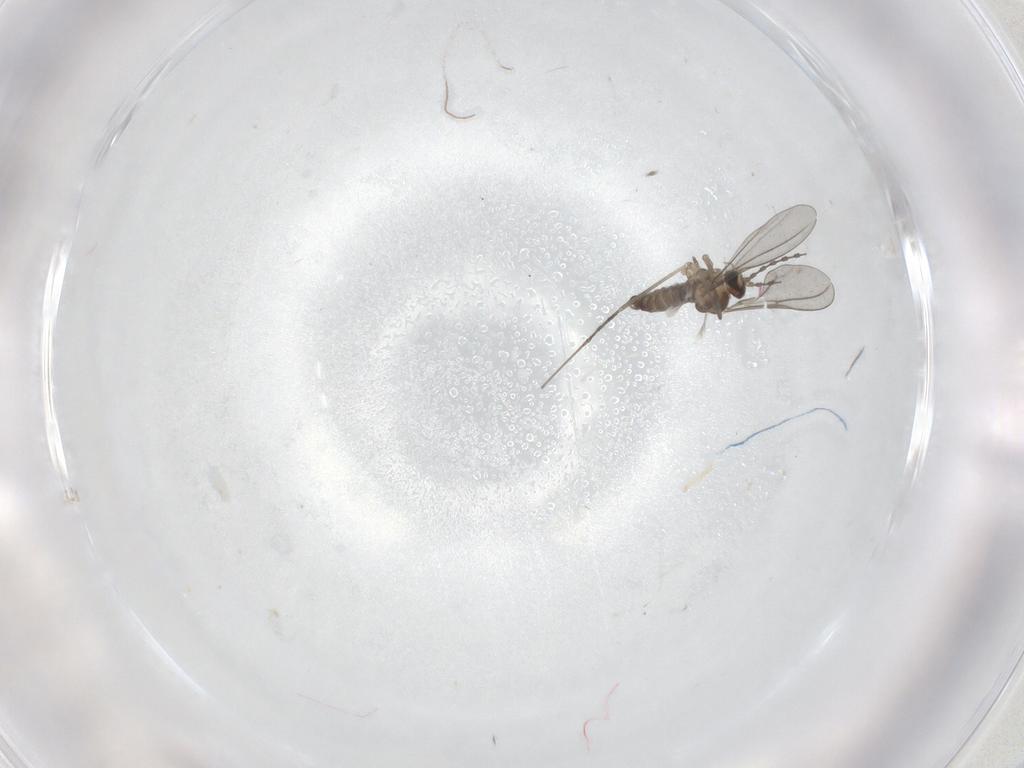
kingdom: Animalia
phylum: Arthropoda
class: Insecta
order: Diptera
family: Cecidomyiidae
